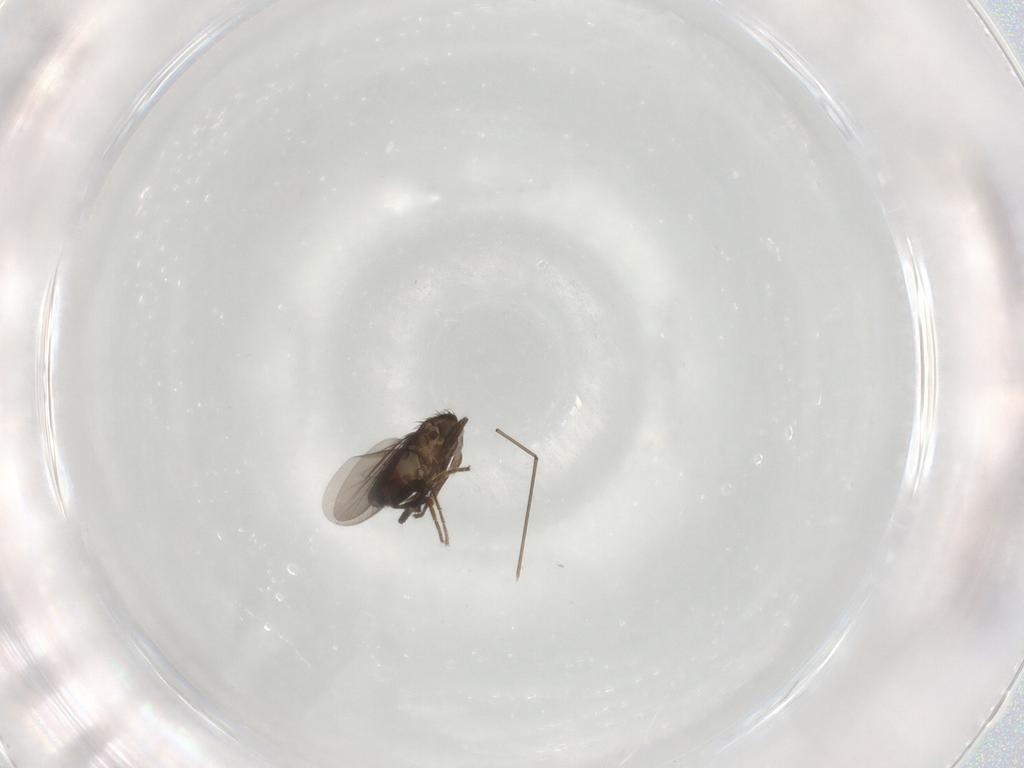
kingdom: Animalia
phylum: Arthropoda
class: Insecta
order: Diptera
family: Sphaeroceridae
